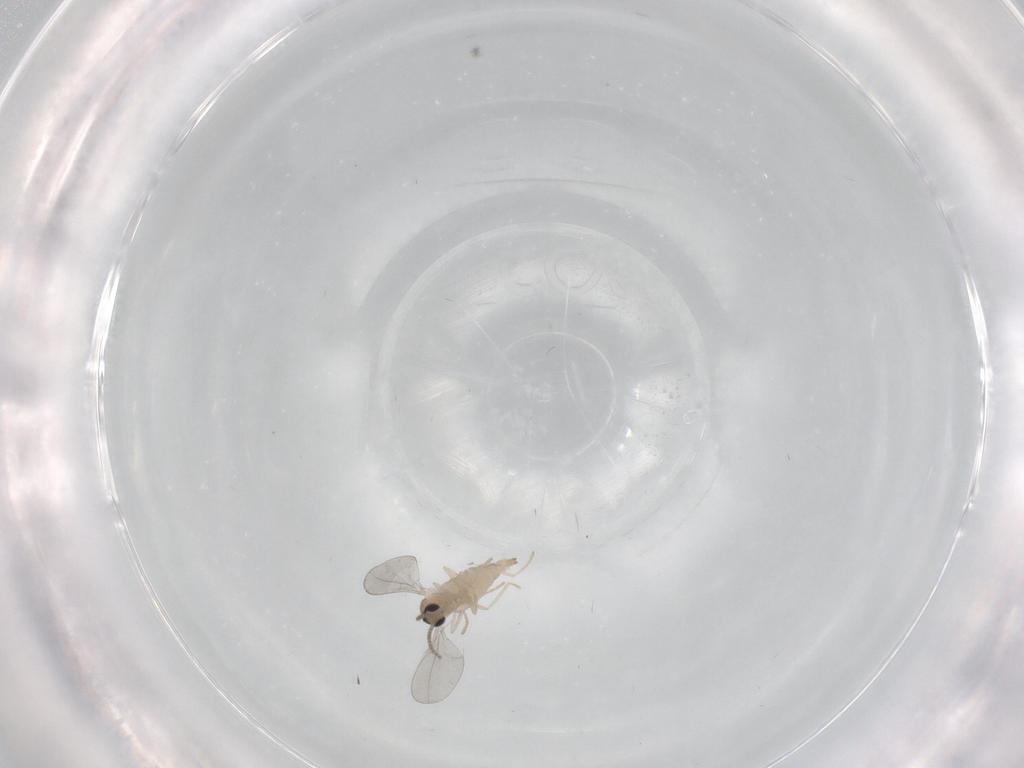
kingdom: Animalia
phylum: Arthropoda
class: Insecta
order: Diptera
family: Cecidomyiidae
